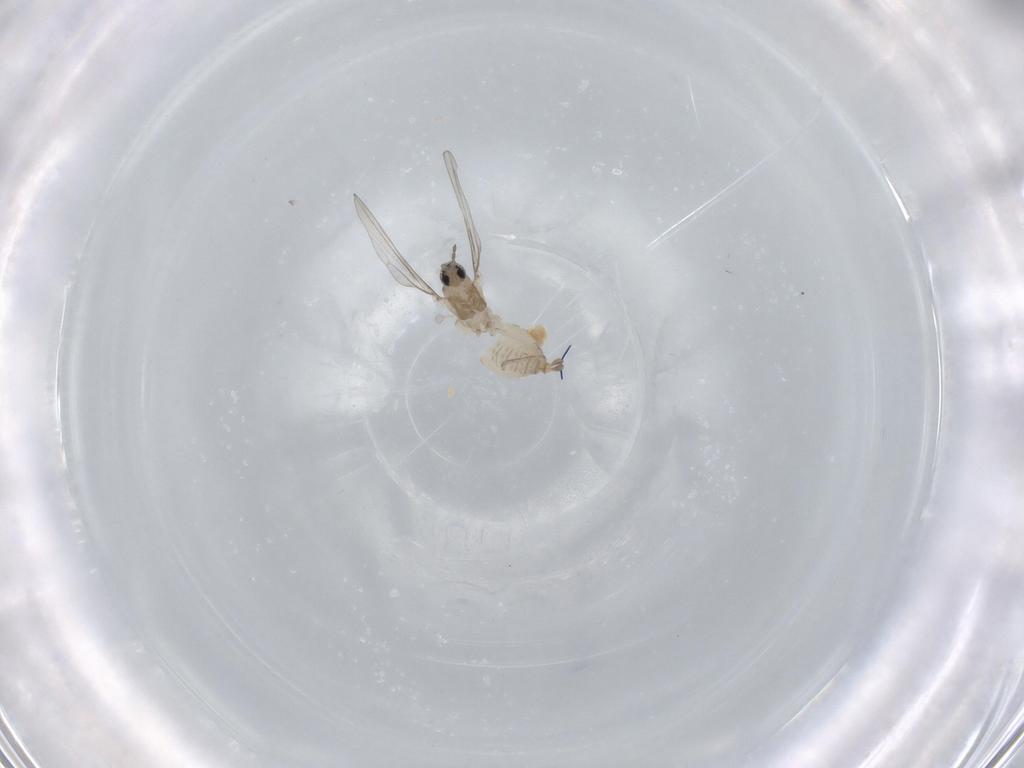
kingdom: Animalia
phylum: Arthropoda
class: Insecta
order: Diptera
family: Cecidomyiidae
